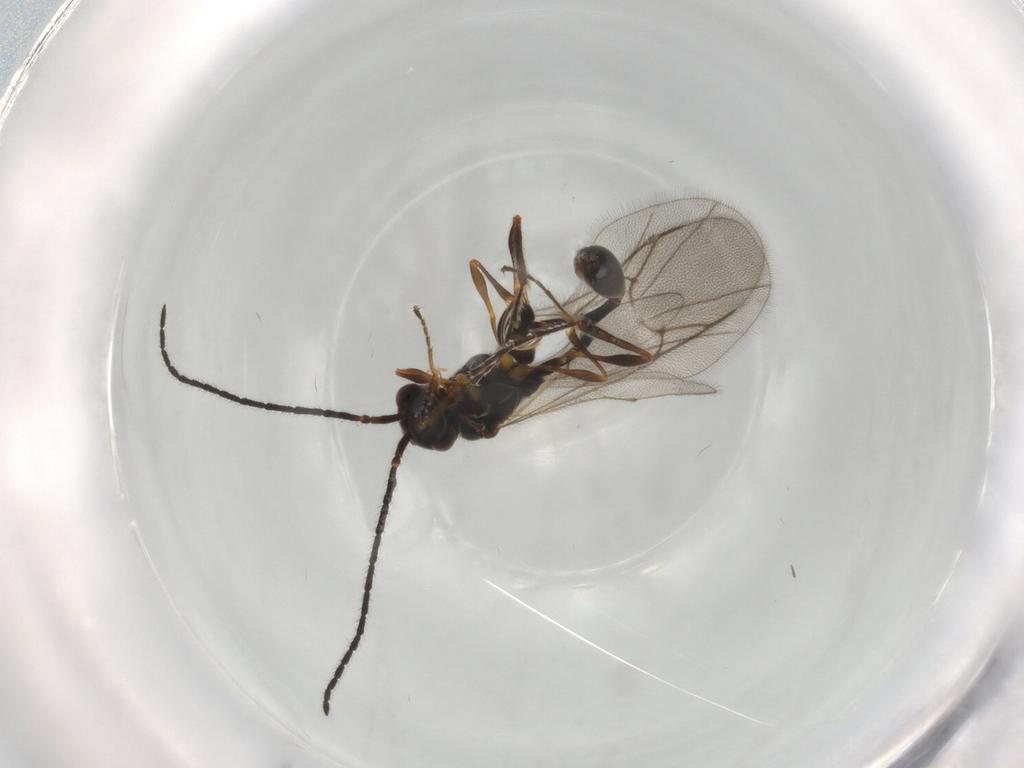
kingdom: Animalia
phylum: Arthropoda
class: Insecta
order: Hymenoptera
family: Diapriidae
